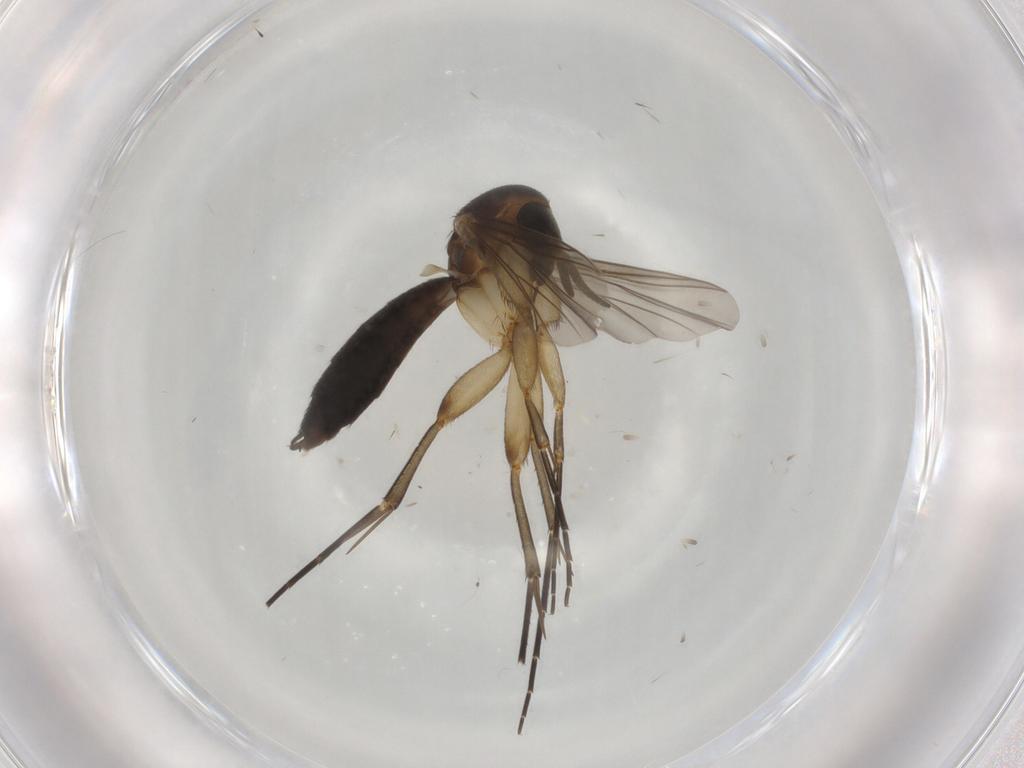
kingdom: Animalia
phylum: Arthropoda
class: Insecta
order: Diptera
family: Mycetophilidae
